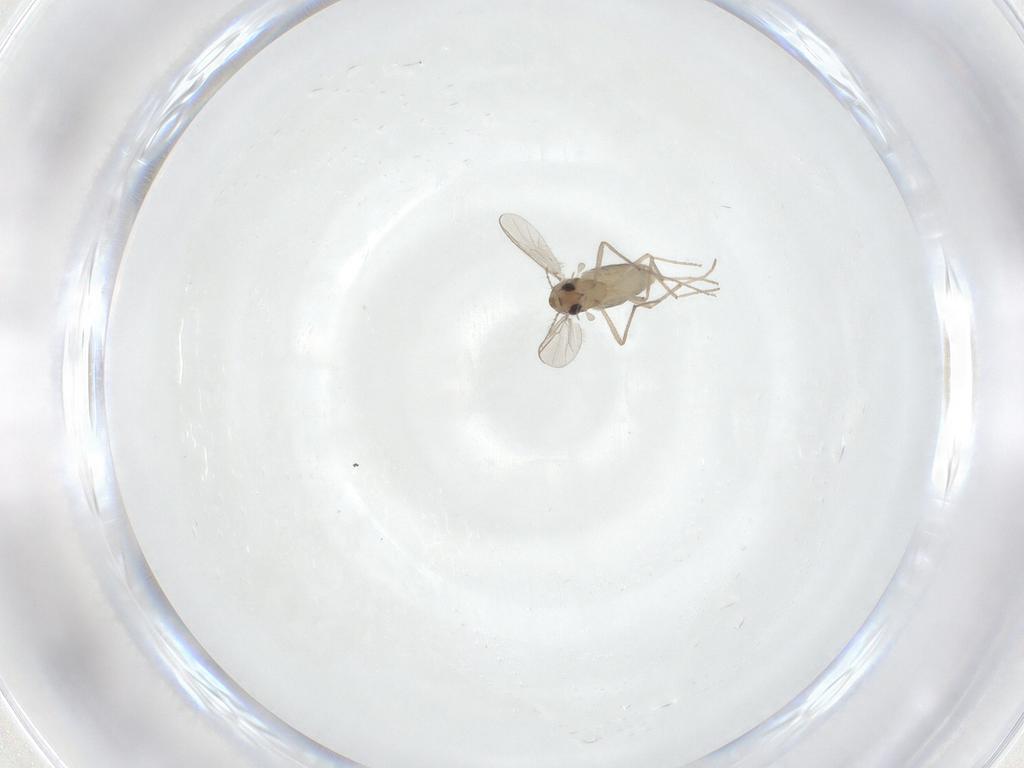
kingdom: Animalia
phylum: Arthropoda
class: Insecta
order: Diptera
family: Chironomidae
